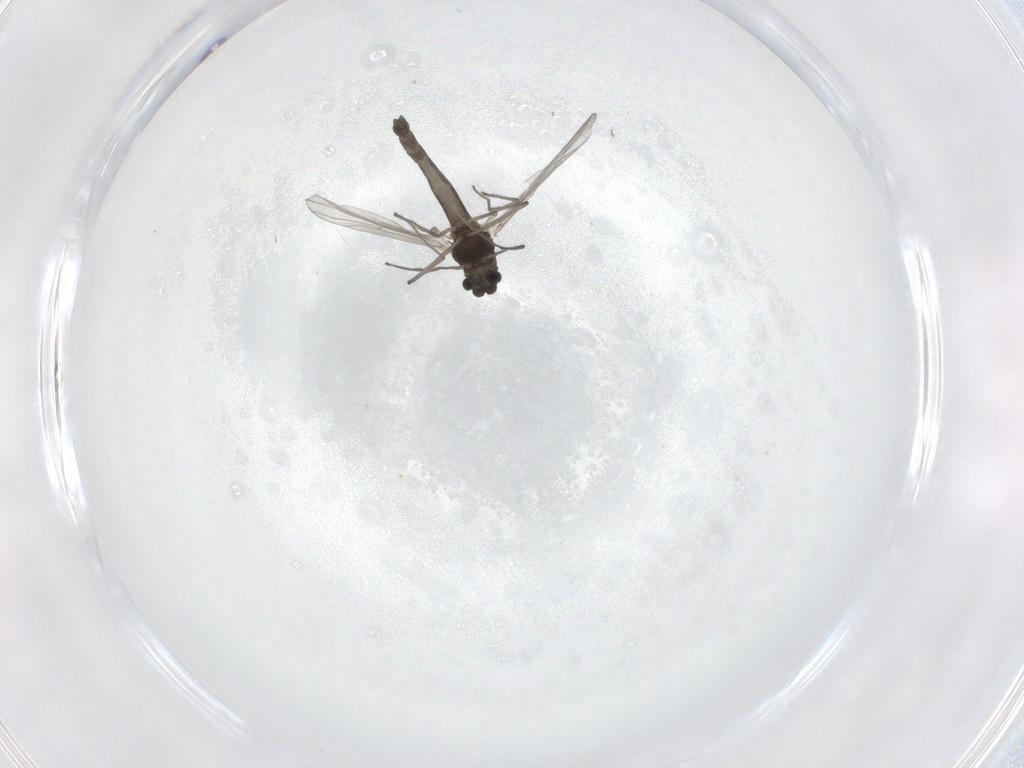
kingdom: Animalia
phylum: Arthropoda
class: Insecta
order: Diptera
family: Chironomidae
